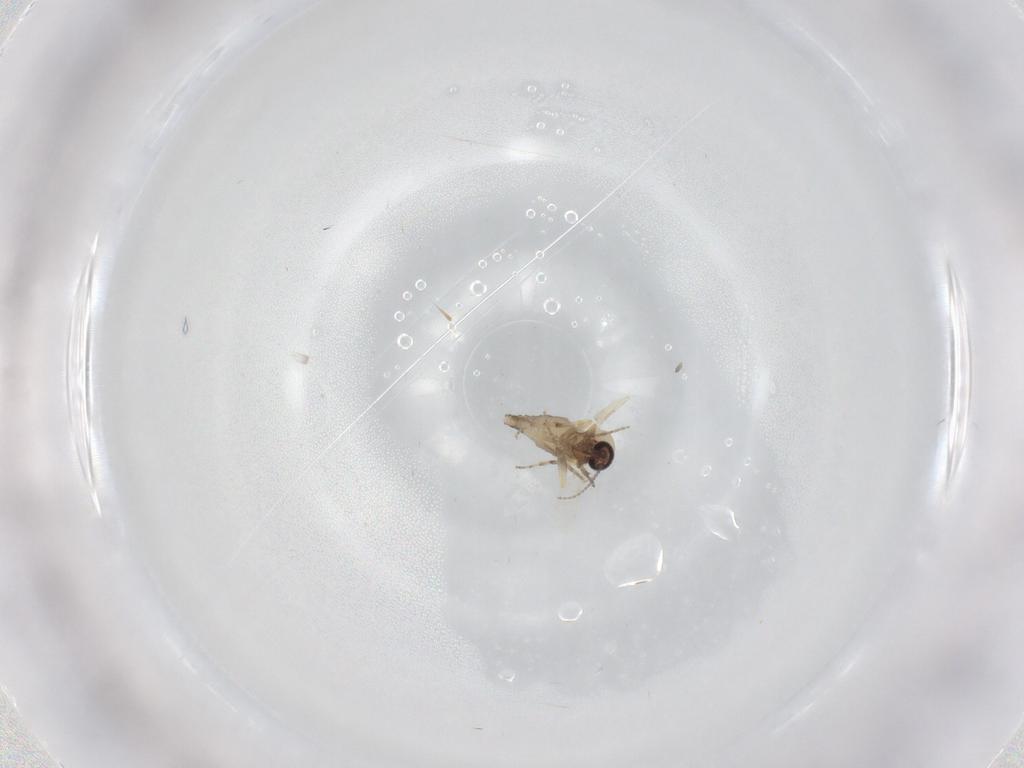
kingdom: Animalia
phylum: Arthropoda
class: Insecta
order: Diptera
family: Ceratopogonidae
